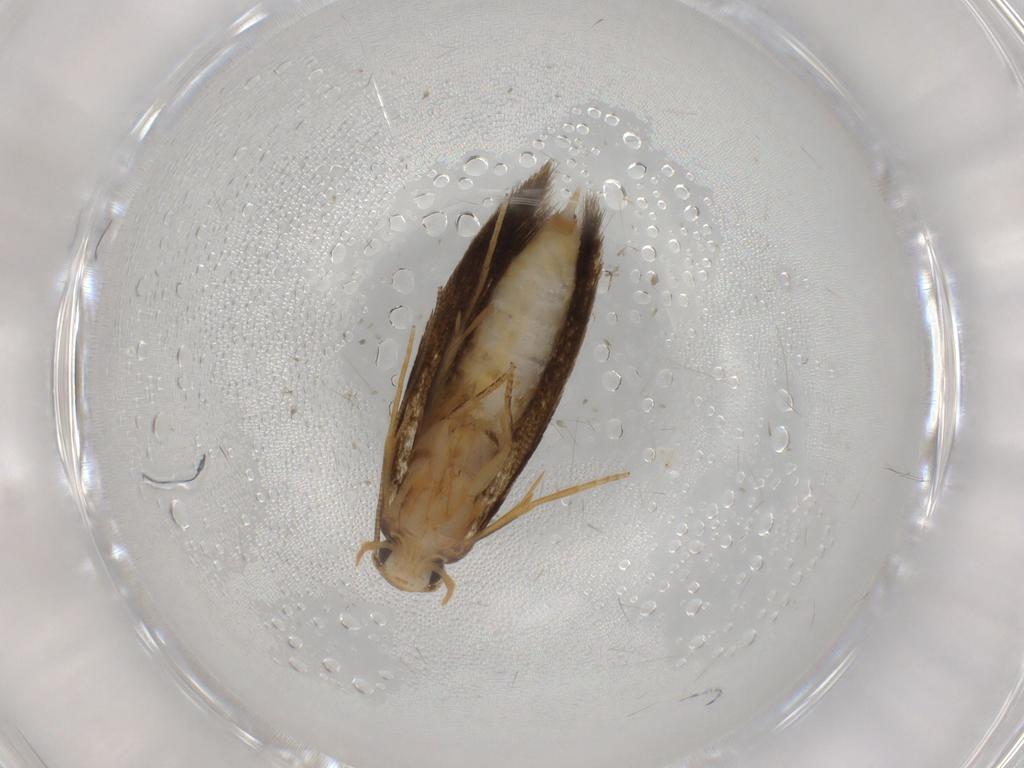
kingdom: Animalia
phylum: Arthropoda
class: Insecta
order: Lepidoptera
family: Tineidae
